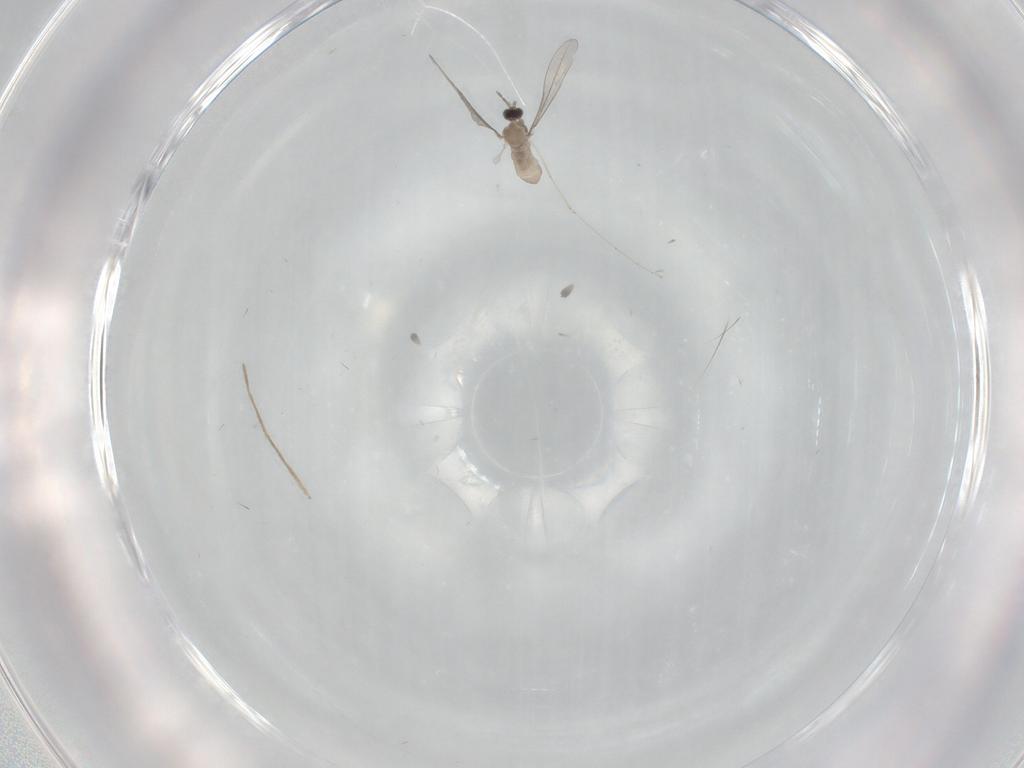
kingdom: Animalia
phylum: Arthropoda
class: Insecta
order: Diptera
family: Cecidomyiidae
